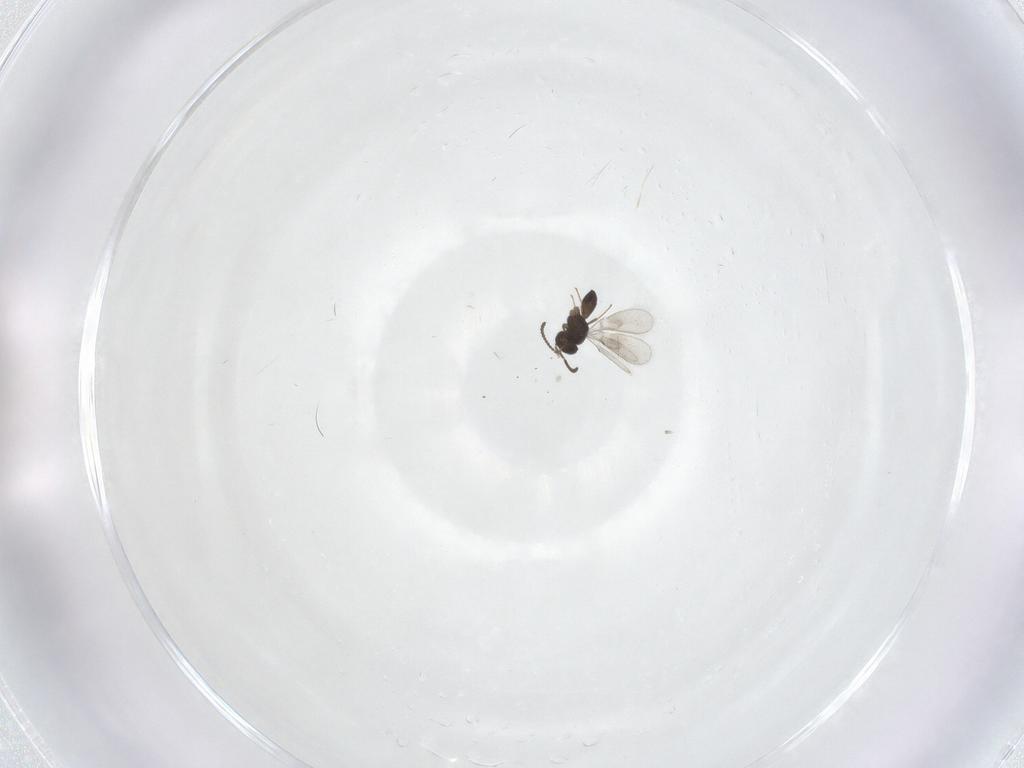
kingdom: Animalia
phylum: Arthropoda
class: Insecta
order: Hymenoptera
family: Scelionidae
